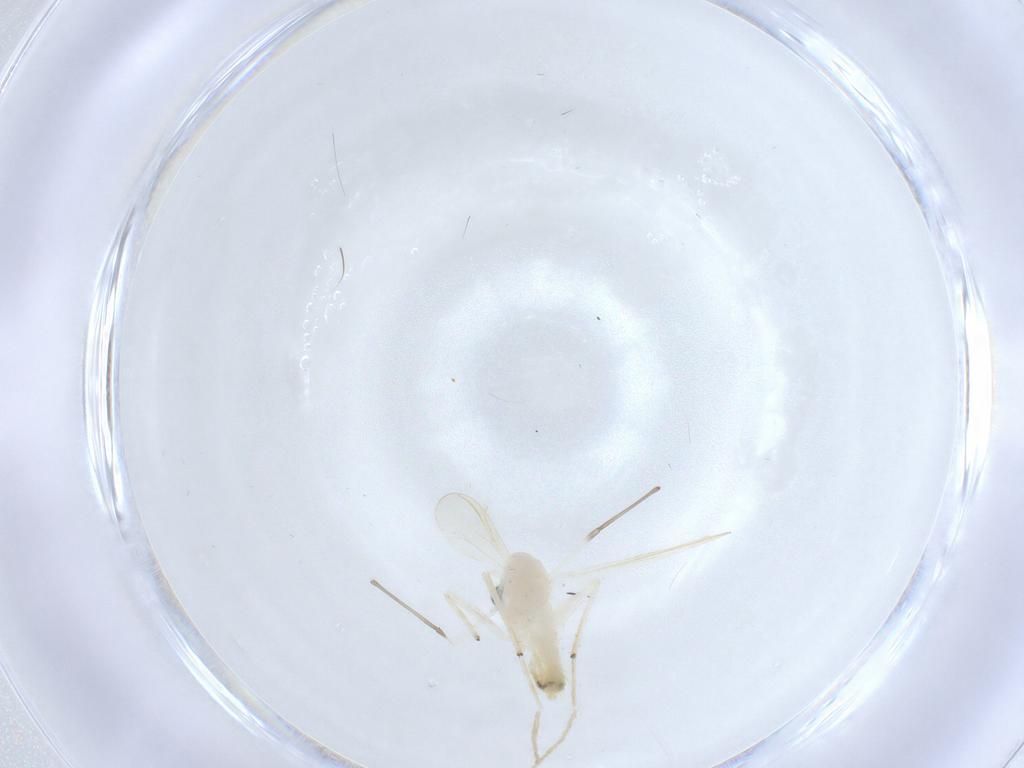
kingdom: Animalia
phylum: Arthropoda
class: Insecta
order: Diptera
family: Chironomidae
